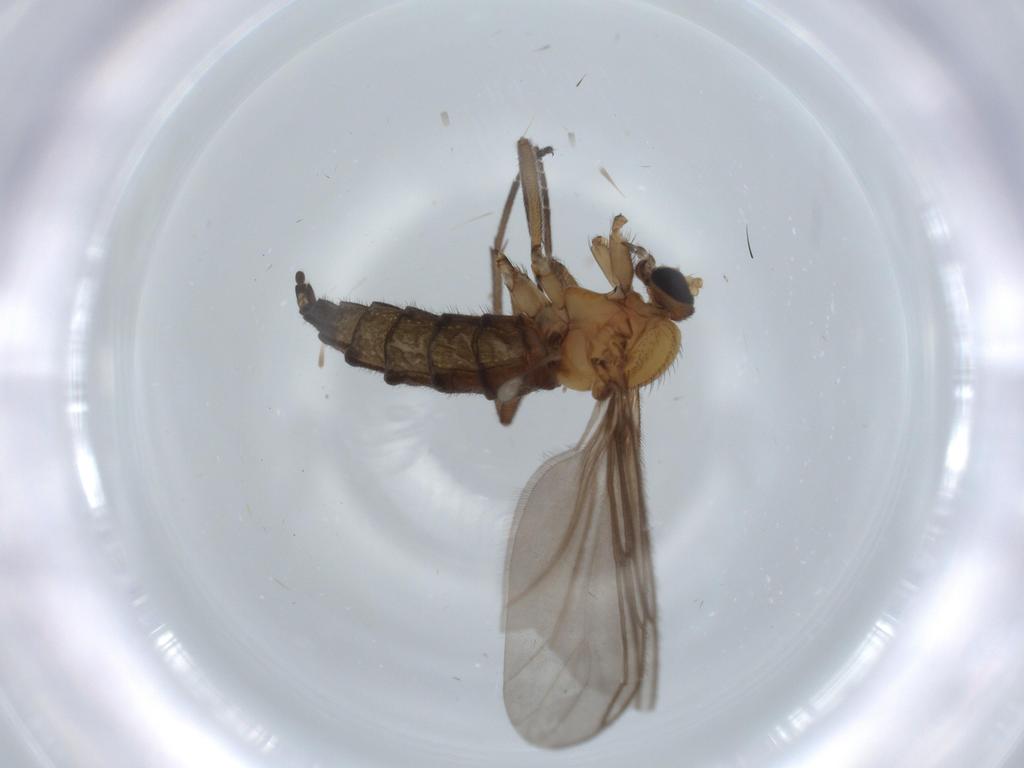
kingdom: Animalia
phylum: Arthropoda
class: Insecta
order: Diptera
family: Sciaridae
